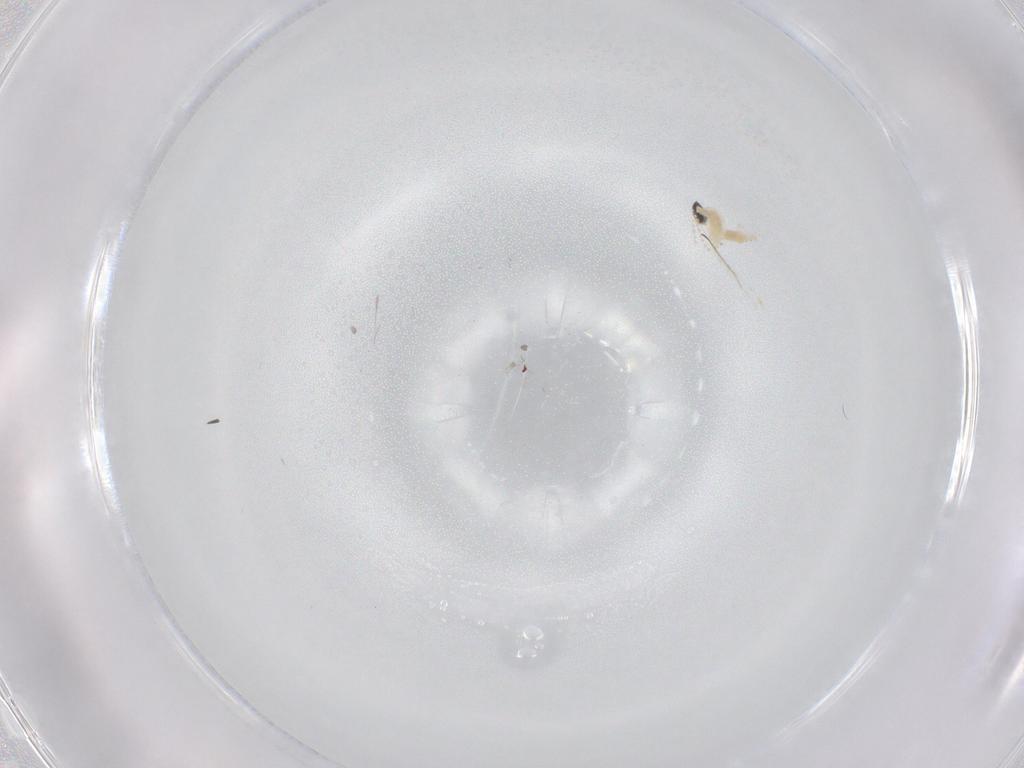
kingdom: Animalia
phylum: Arthropoda
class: Insecta
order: Diptera
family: Cecidomyiidae
